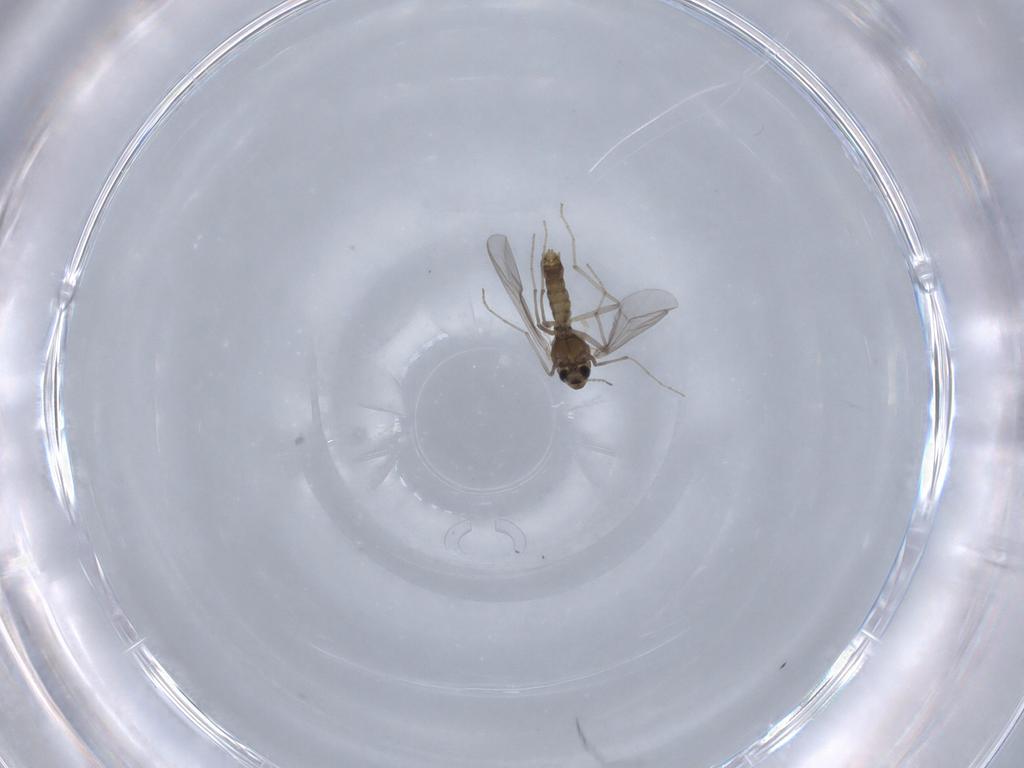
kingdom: Animalia
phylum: Arthropoda
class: Insecta
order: Diptera
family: Chironomidae
